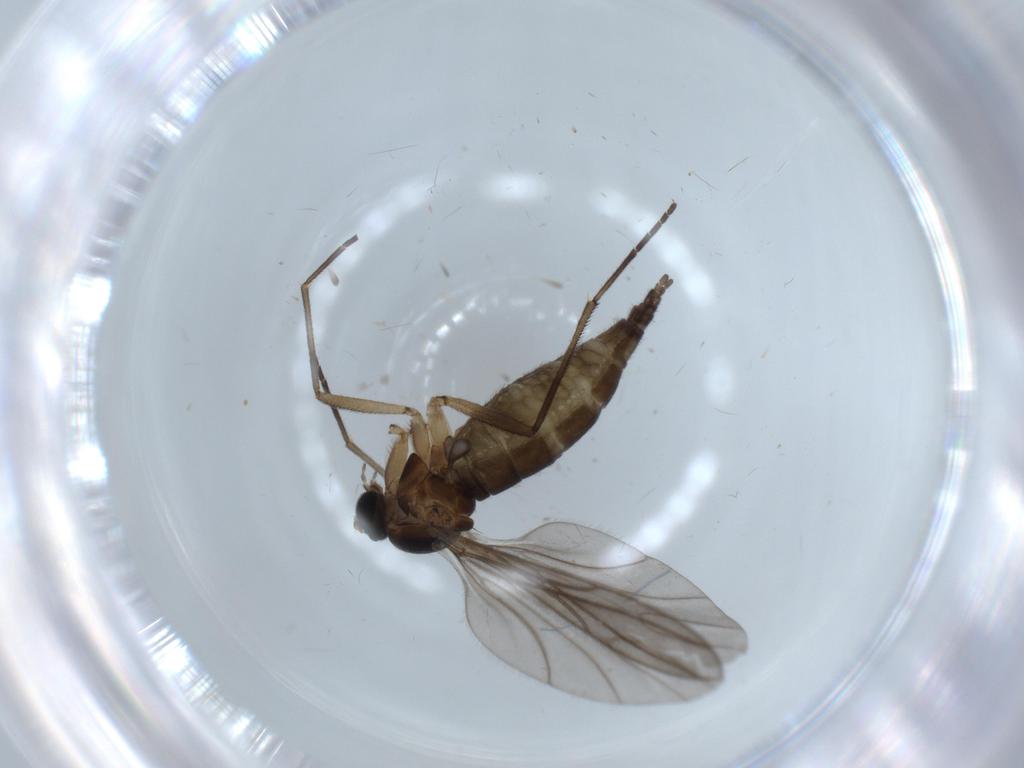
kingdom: Animalia
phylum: Arthropoda
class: Insecta
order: Diptera
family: Sciaridae
